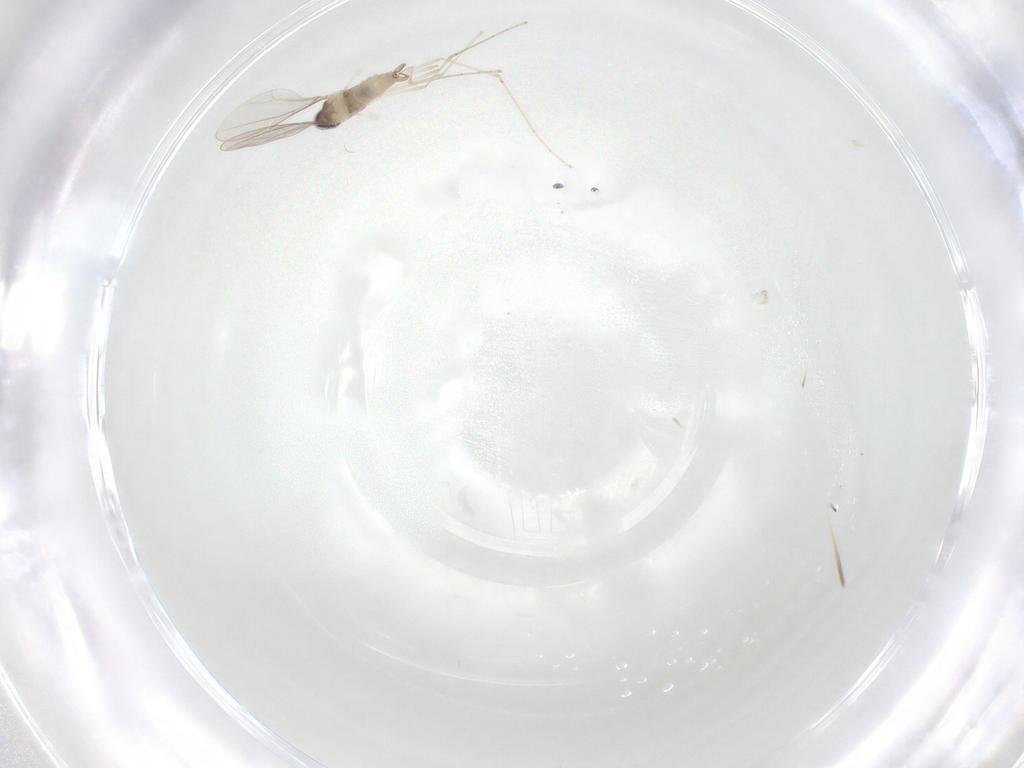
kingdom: Animalia
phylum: Arthropoda
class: Insecta
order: Diptera
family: Cecidomyiidae
